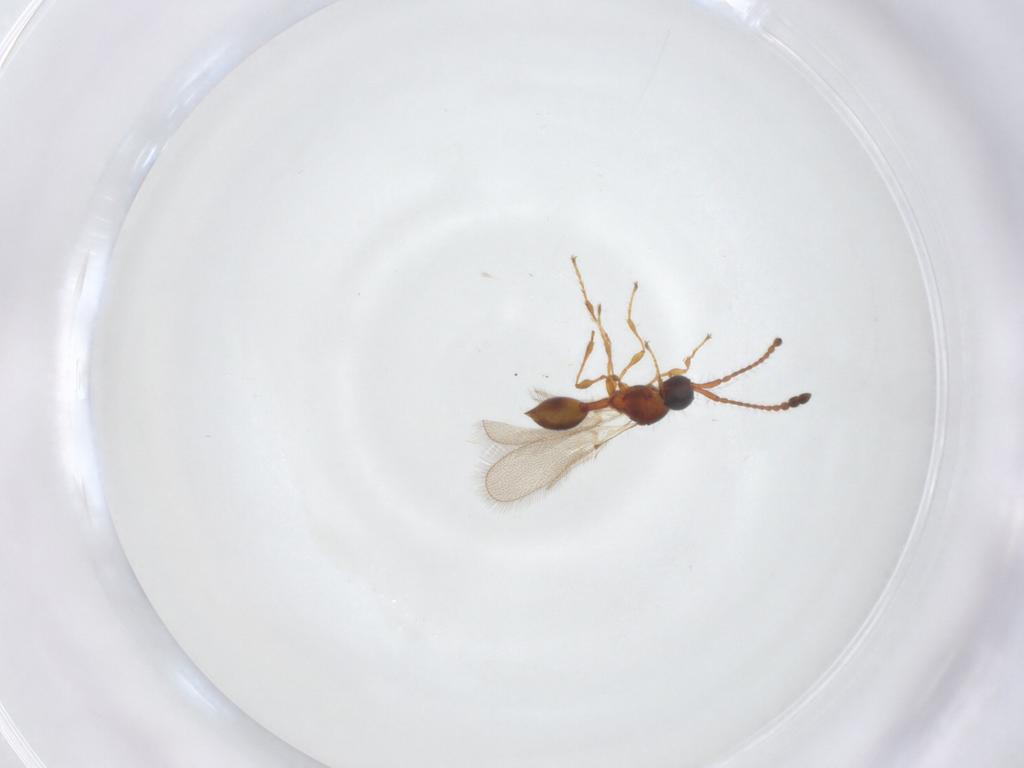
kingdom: Animalia
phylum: Arthropoda
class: Insecta
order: Hymenoptera
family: Diapriidae
